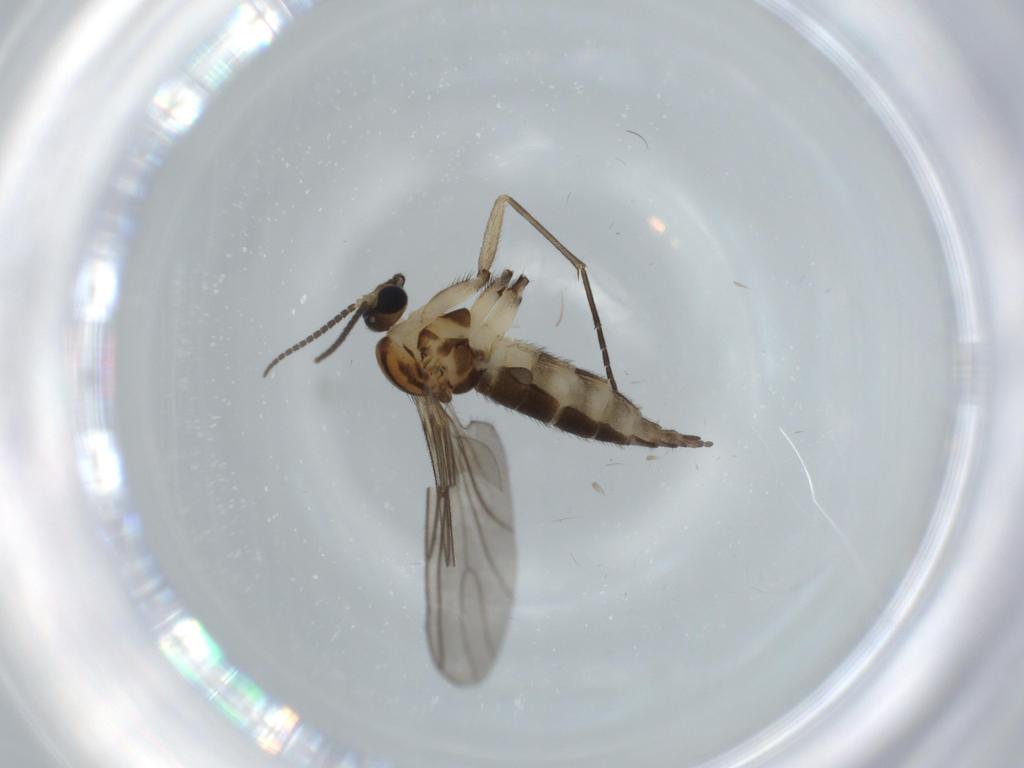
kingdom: Animalia
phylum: Arthropoda
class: Insecta
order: Diptera
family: Sciaridae
